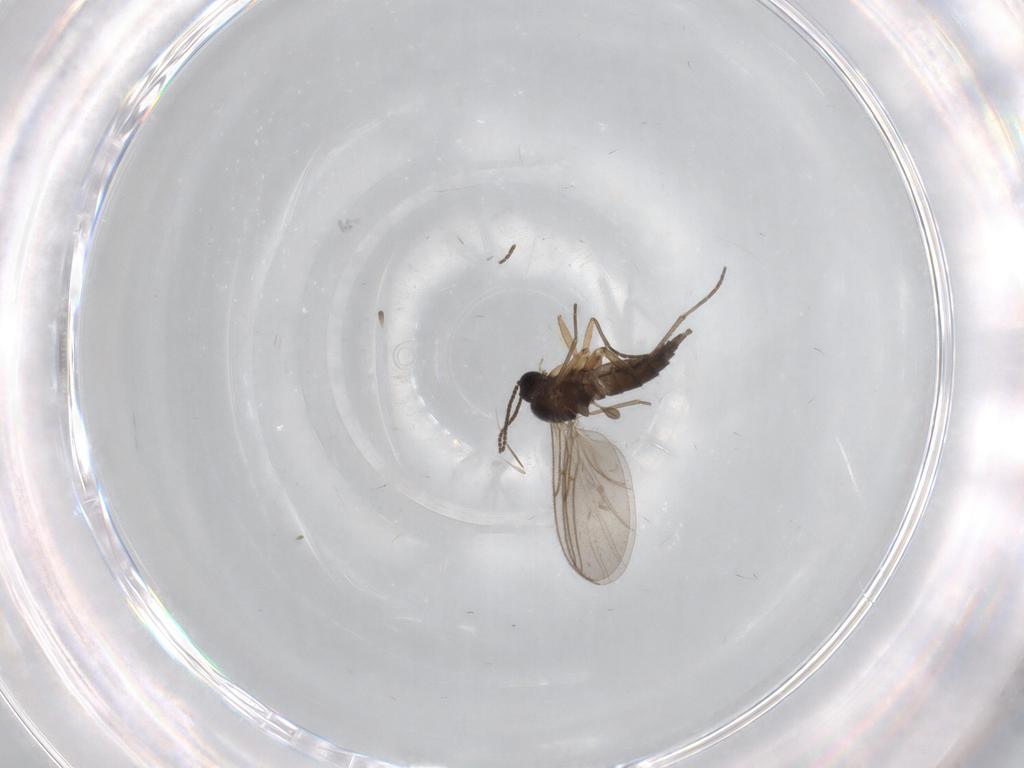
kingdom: Animalia
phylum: Arthropoda
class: Insecta
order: Diptera
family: Sciaridae
